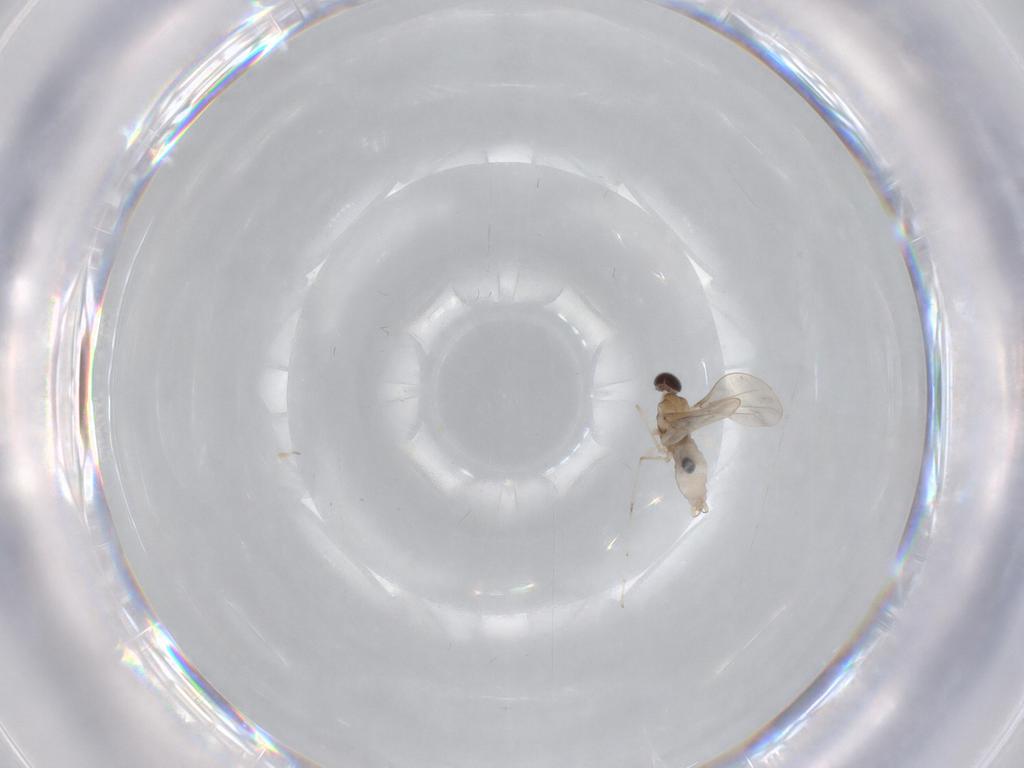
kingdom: Animalia
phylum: Arthropoda
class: Insecta
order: Diptera
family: Cecidomyiidae
